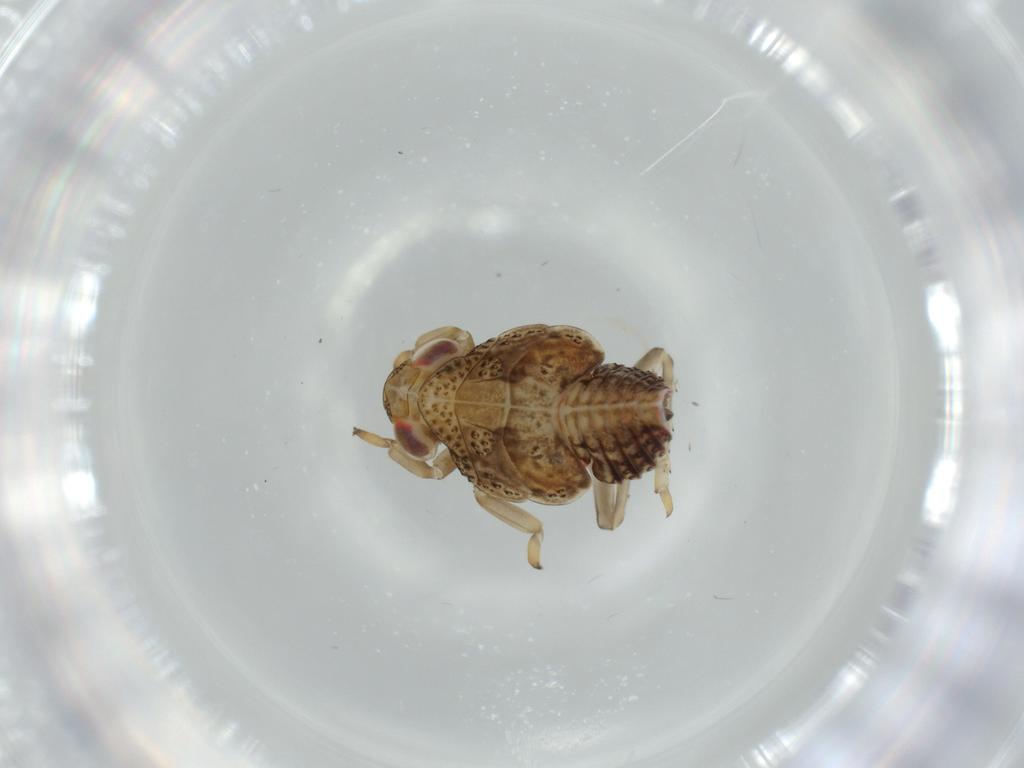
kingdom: Animalia
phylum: Arthropoda
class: Insecta
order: Hemiptera
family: Issidae
